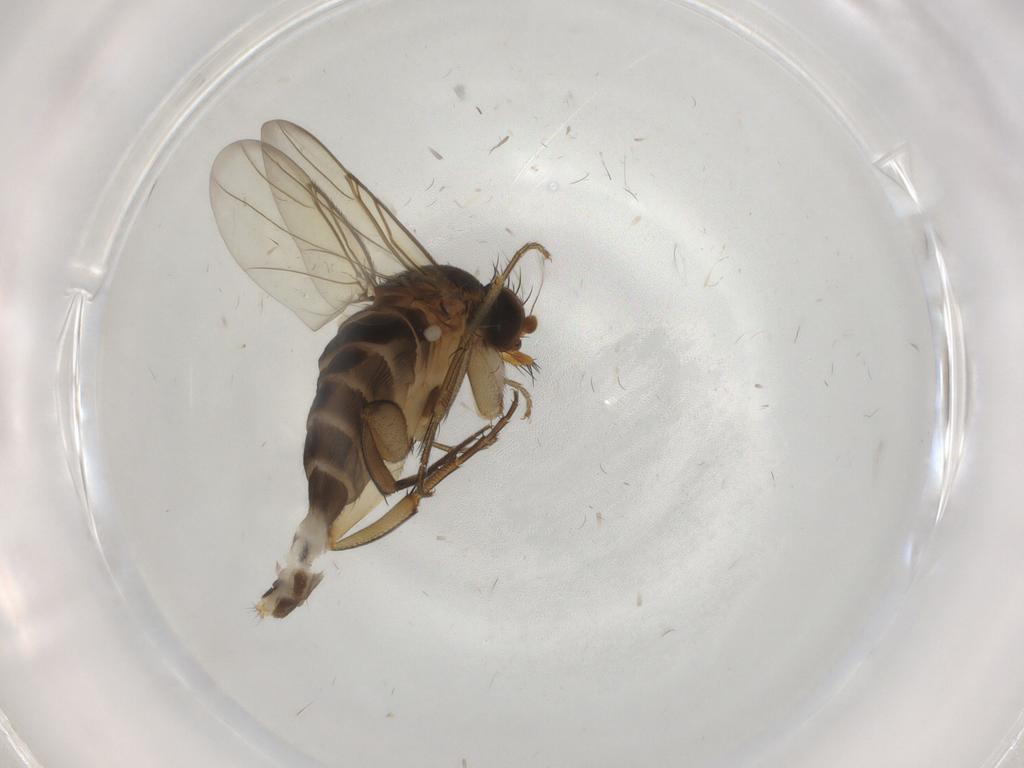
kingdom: Animalia
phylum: Arthropoda
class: Insecta
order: Diptera
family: Phoridae
